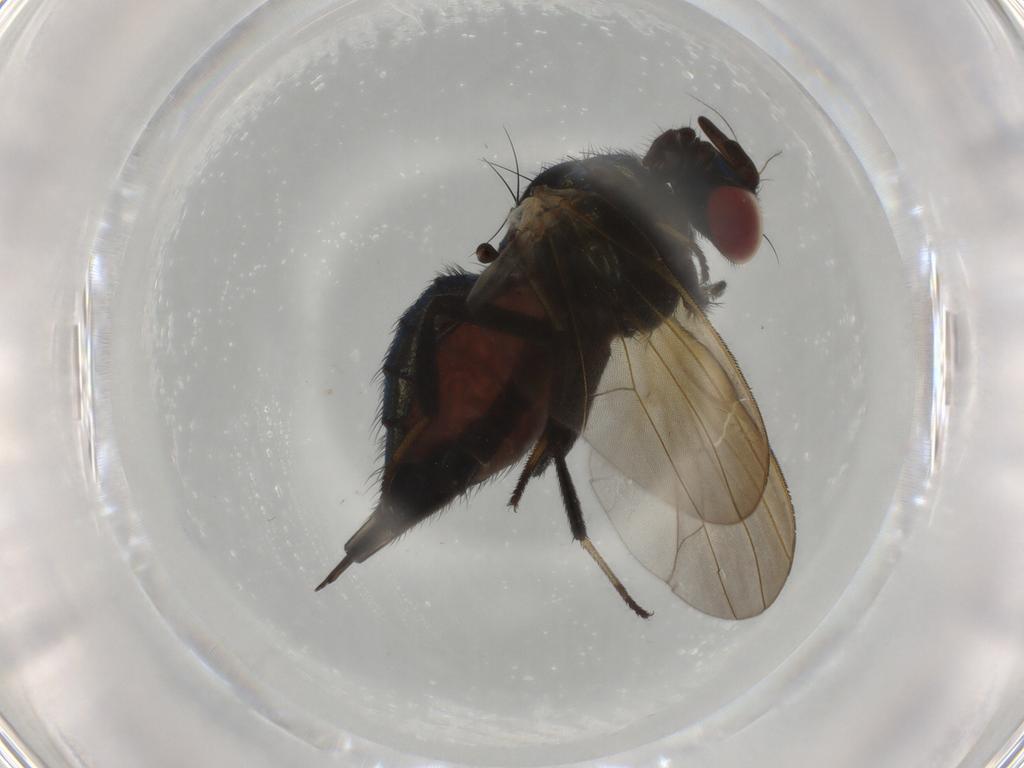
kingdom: Animalia
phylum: Arthropoda
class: Insecta
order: Diptera
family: Lonchaeidae
